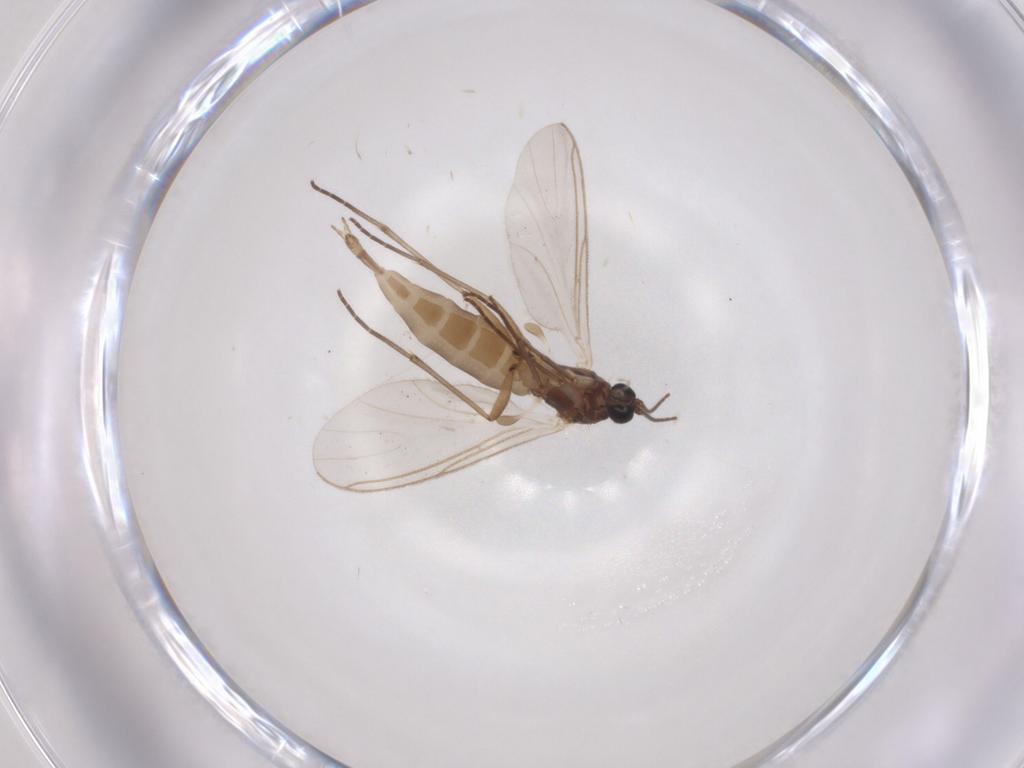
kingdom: Animalia
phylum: Arthropoda
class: Insecta
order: Diptera
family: Sciaridae
